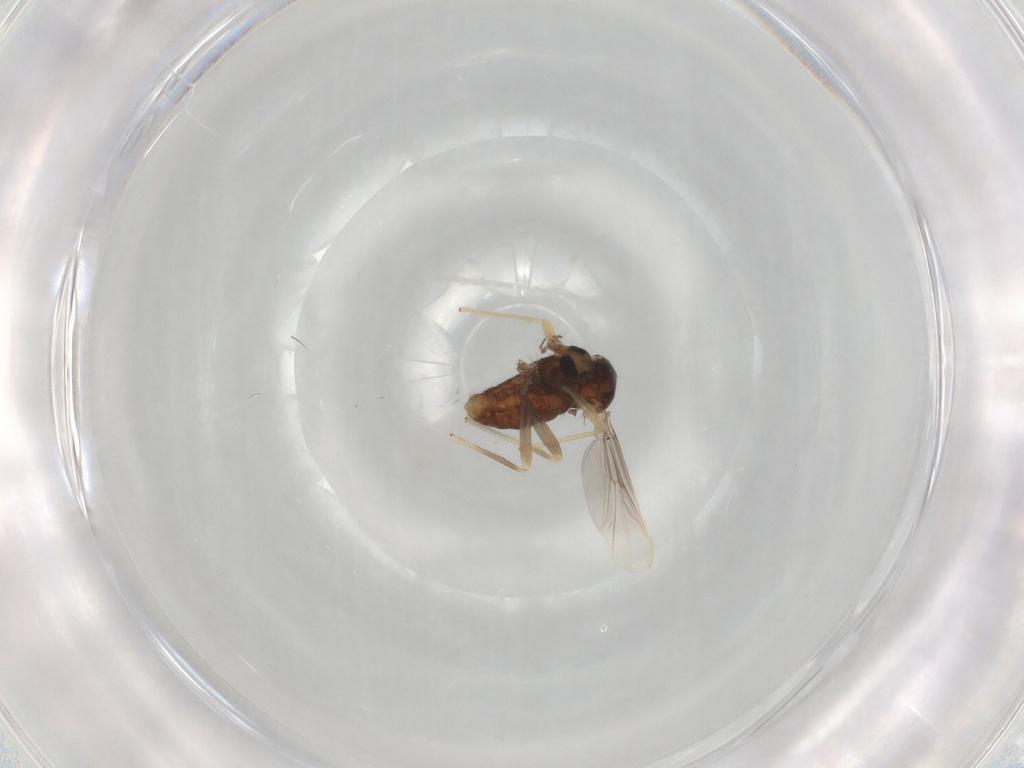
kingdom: Animalia
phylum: Arthropoda
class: Insecta
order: Diptera
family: Chironomidae
